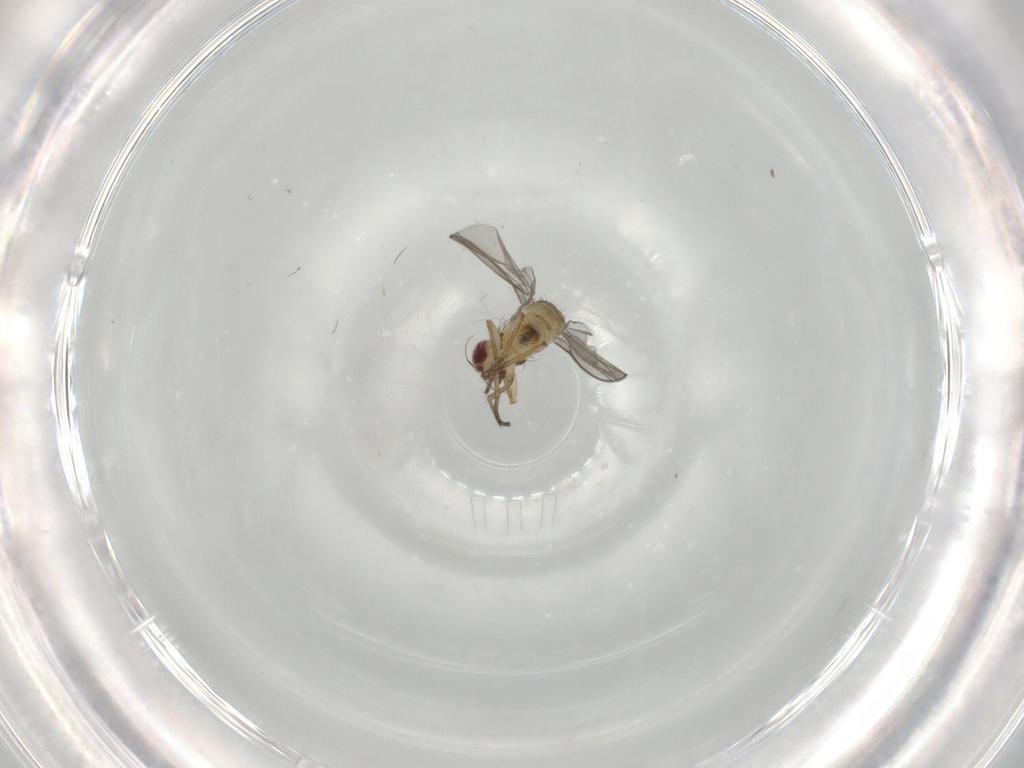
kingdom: Animalia
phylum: Arthropoda
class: Insecta
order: Diptera
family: Agromyzidae
